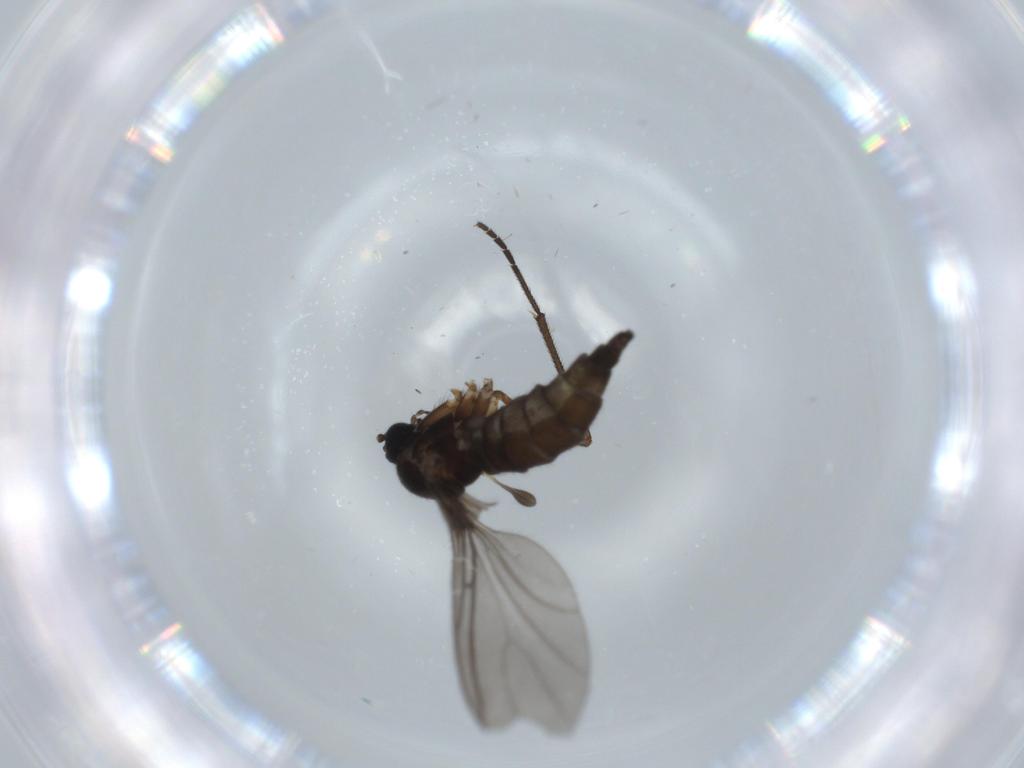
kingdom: Animalia
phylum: Arthropoda
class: Insecta
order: Diptera
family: Sciaridae
